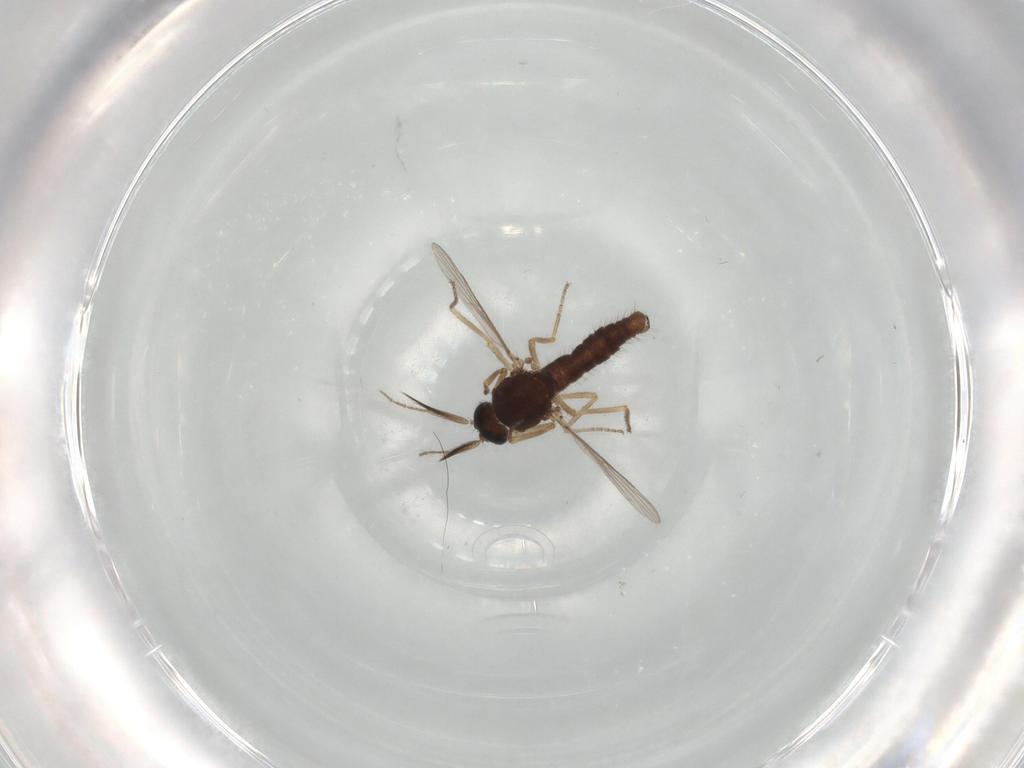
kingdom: Animalia
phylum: Arthropoda
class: Insecta
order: Diptera
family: Ceratopogonidae
